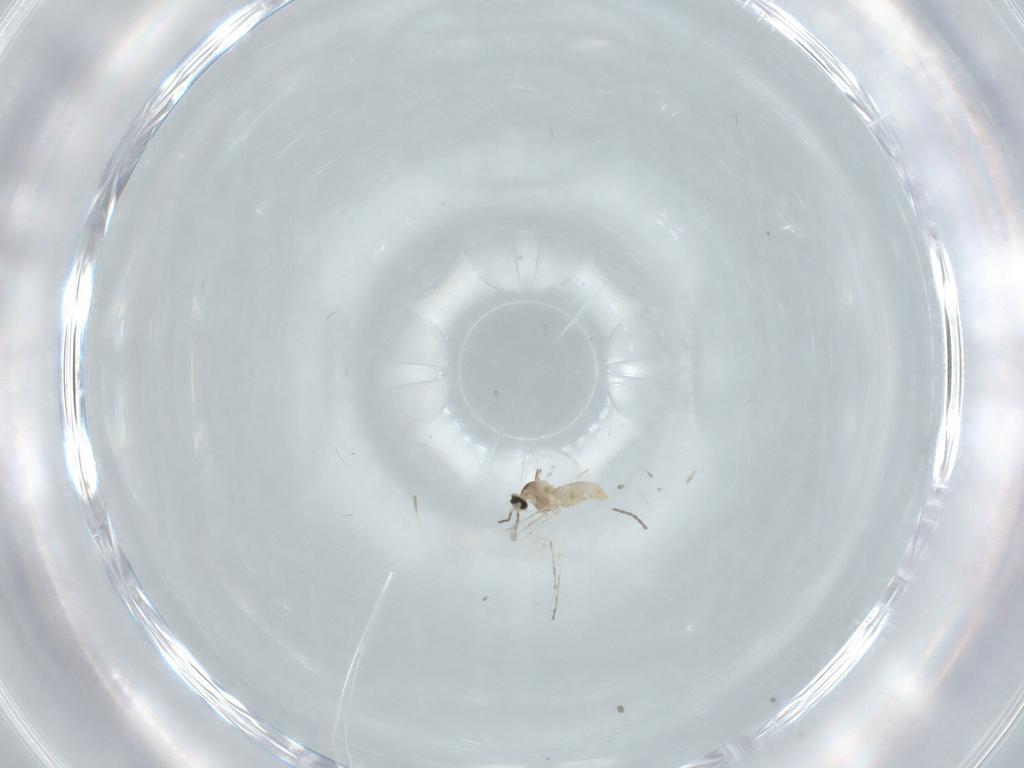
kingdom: Animalia
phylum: Arthropoda
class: Insecta
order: Diptera
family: Cecidomyiidae
